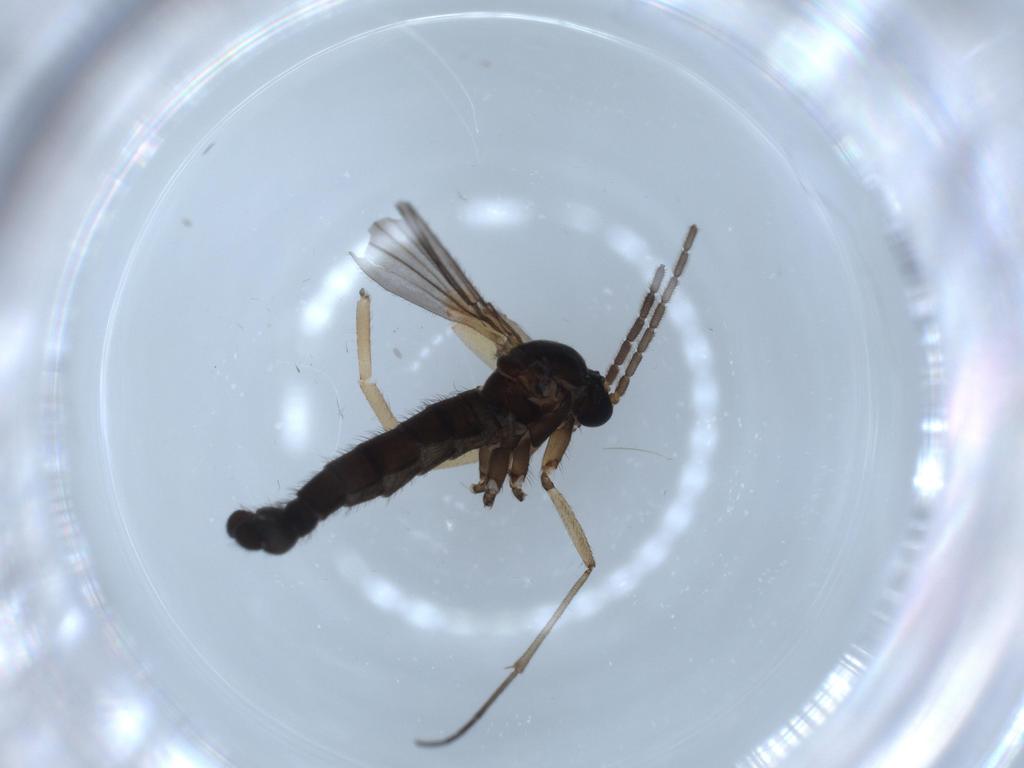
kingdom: Animalia
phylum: Arthropoda
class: Insecta
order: Diptera
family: Sciaridae
